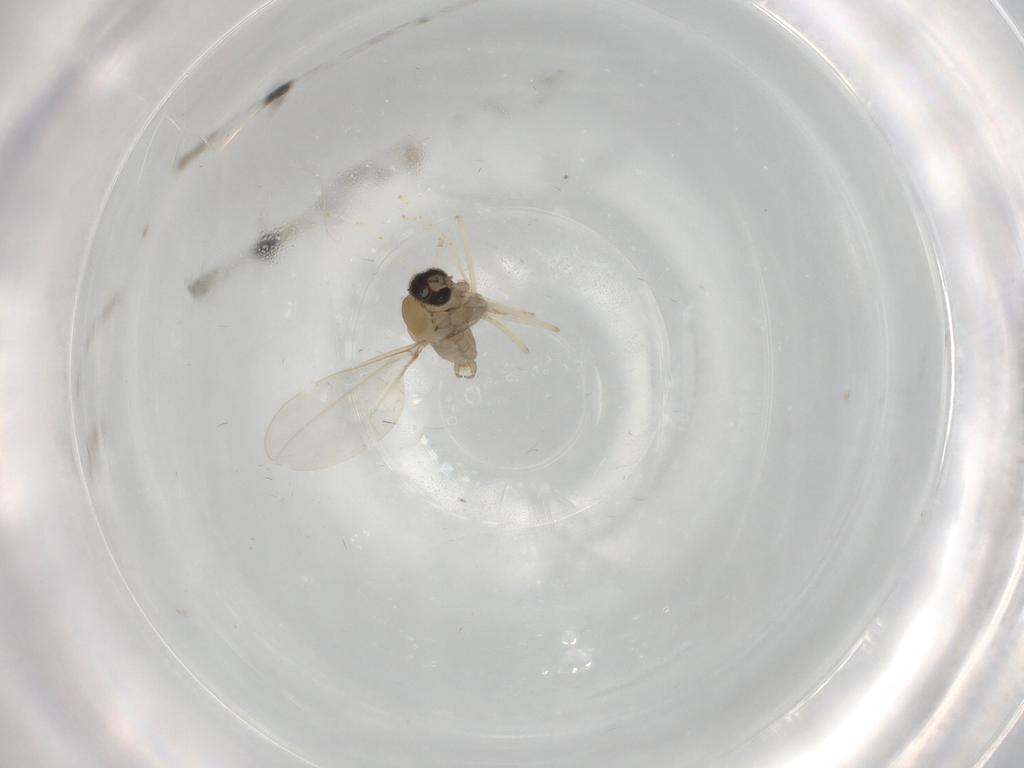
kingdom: Animalia
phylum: Arthropoda
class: Insecta
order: Diptera
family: Cecidomyiidae
